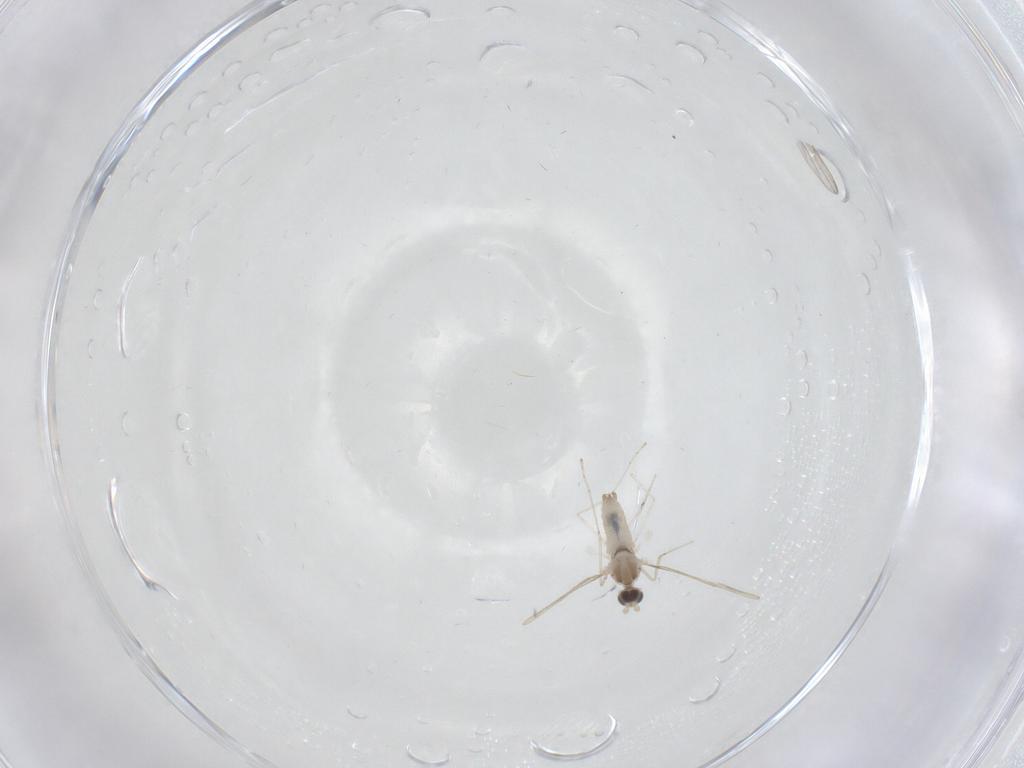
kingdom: Animalia
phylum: Arthropoda
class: Insecta
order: Diptera
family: Cecidomyiidae
